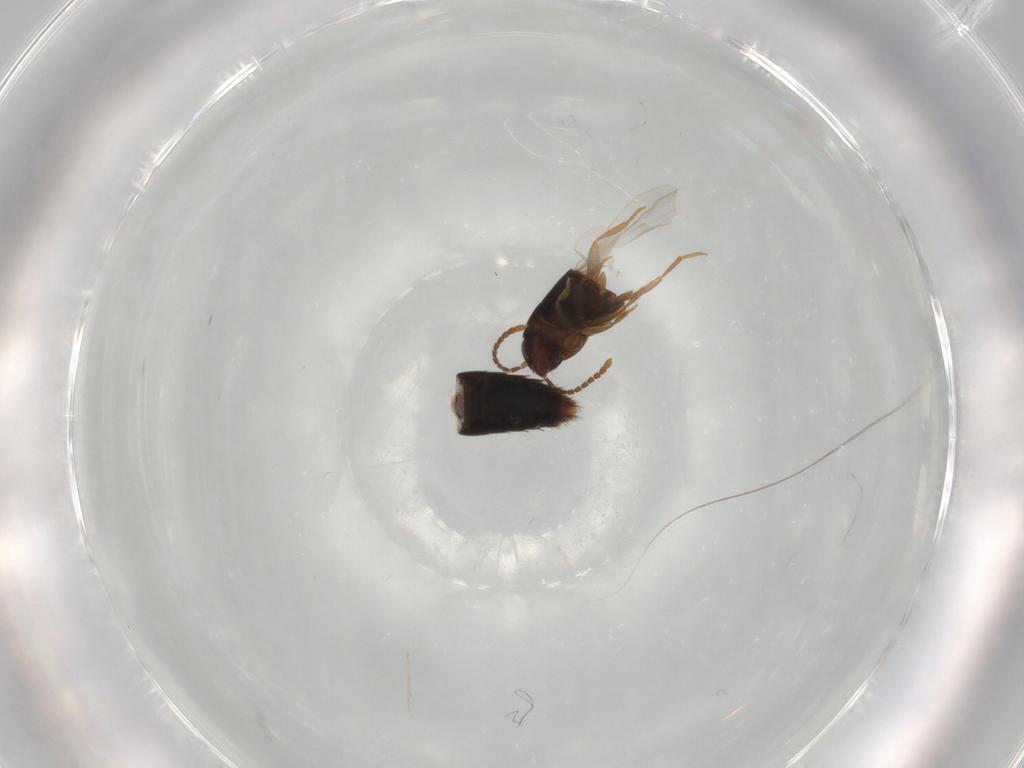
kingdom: Animalia
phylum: Arthropoda
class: Insecta
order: Coleoptera
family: Staphylinidae
